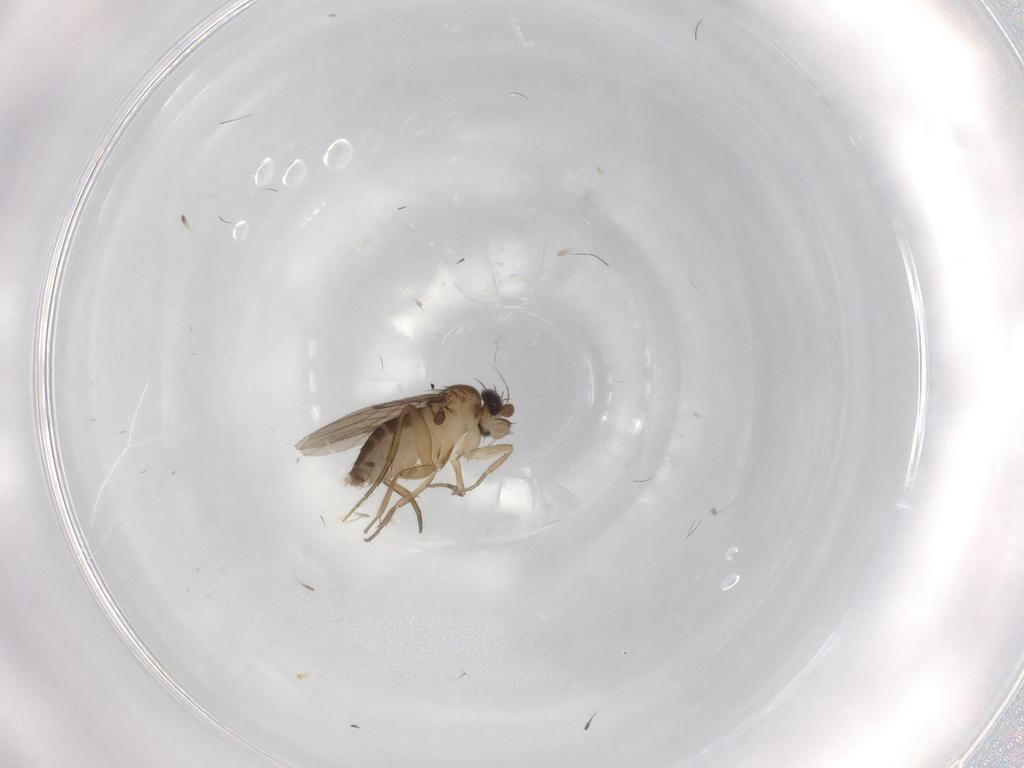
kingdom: Animalia
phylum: Arthropoda
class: Insecta
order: Diptera
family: Phoridae
